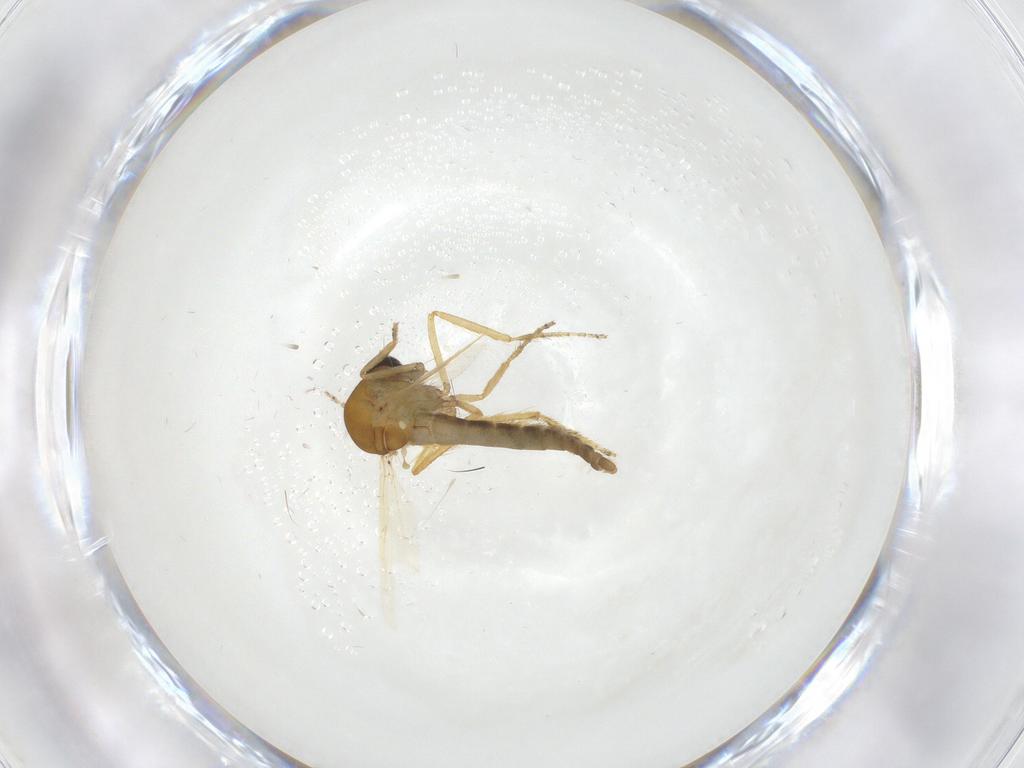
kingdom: Animalia
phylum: Arthropoda
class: Insecta
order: Diptera
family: Ceratopogonidae
